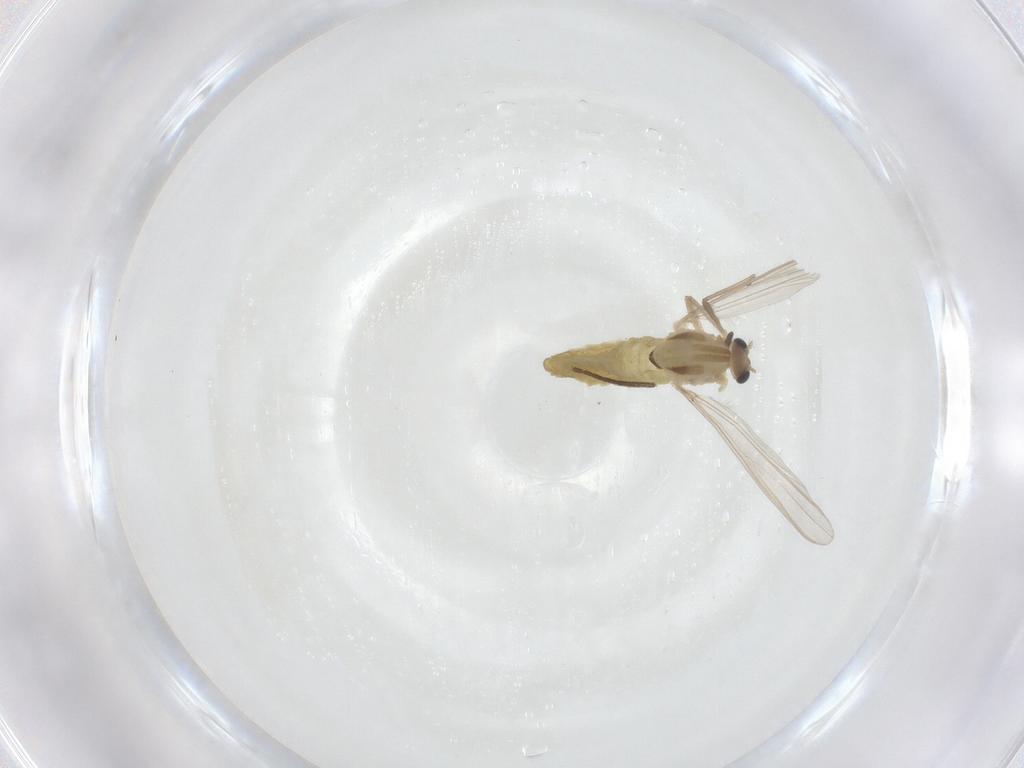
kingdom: Animalia
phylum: Arthropoda
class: Insecta
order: Diptera
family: Chironomidae
